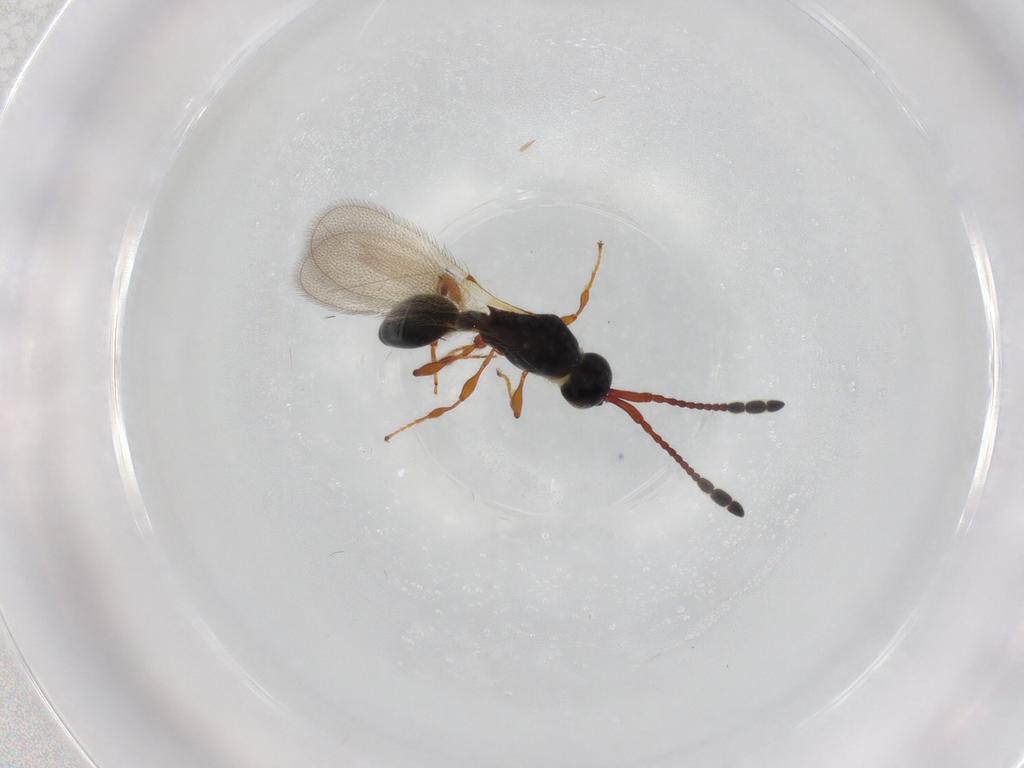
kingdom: Animalia
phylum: Arthropoda
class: Insecta
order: Hymenoptera
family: Diapriidae
